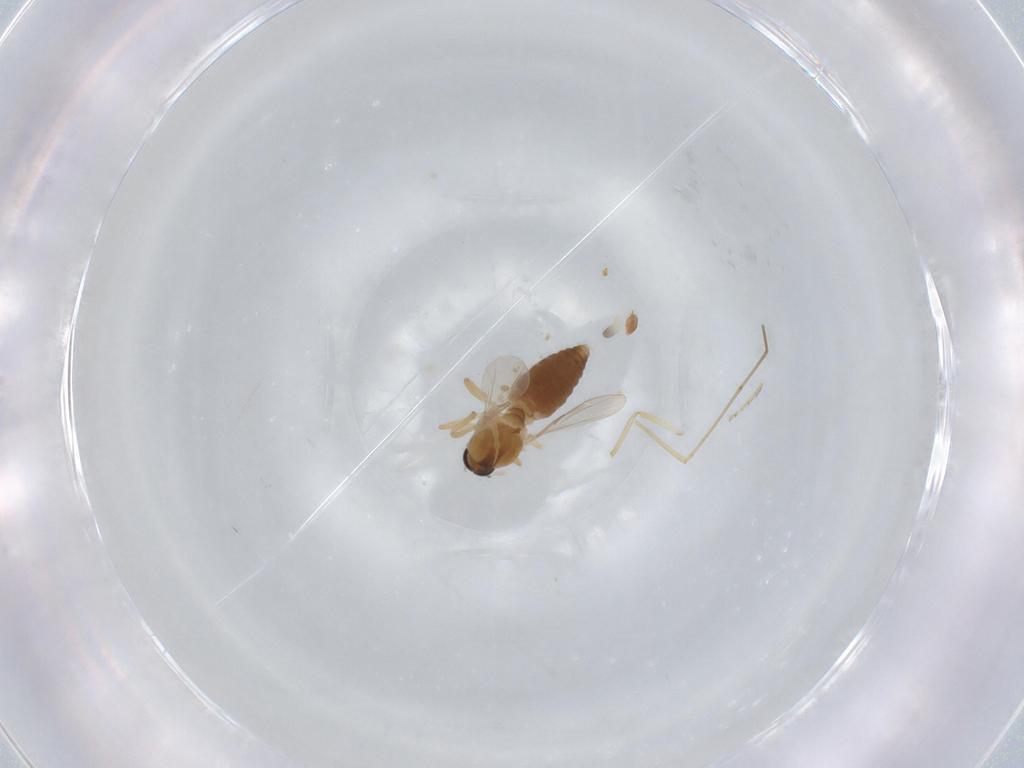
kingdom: Animalia
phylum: Arthropoda
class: Insecta
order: Diptera
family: Ceratopogonidae
